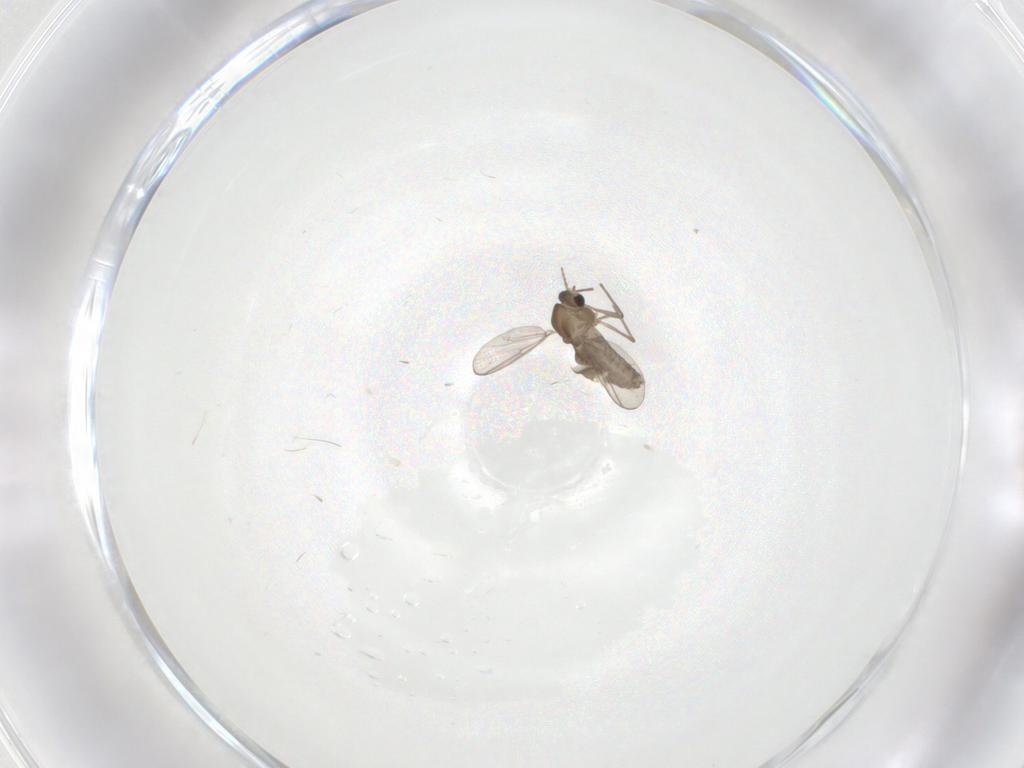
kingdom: Animalia
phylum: Arthropoda
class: Insecta
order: Diptera
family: Chironomidae
